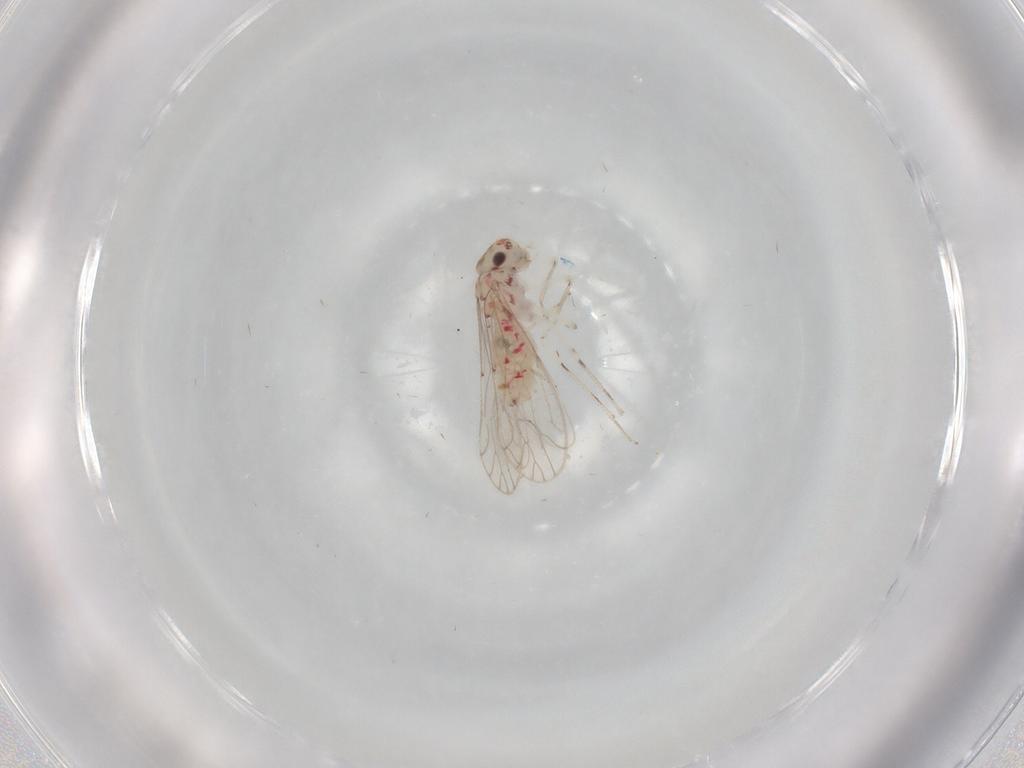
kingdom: Animalia
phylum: Arthropoda
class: Insecta
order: Psocodea
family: Caeciliusidae
